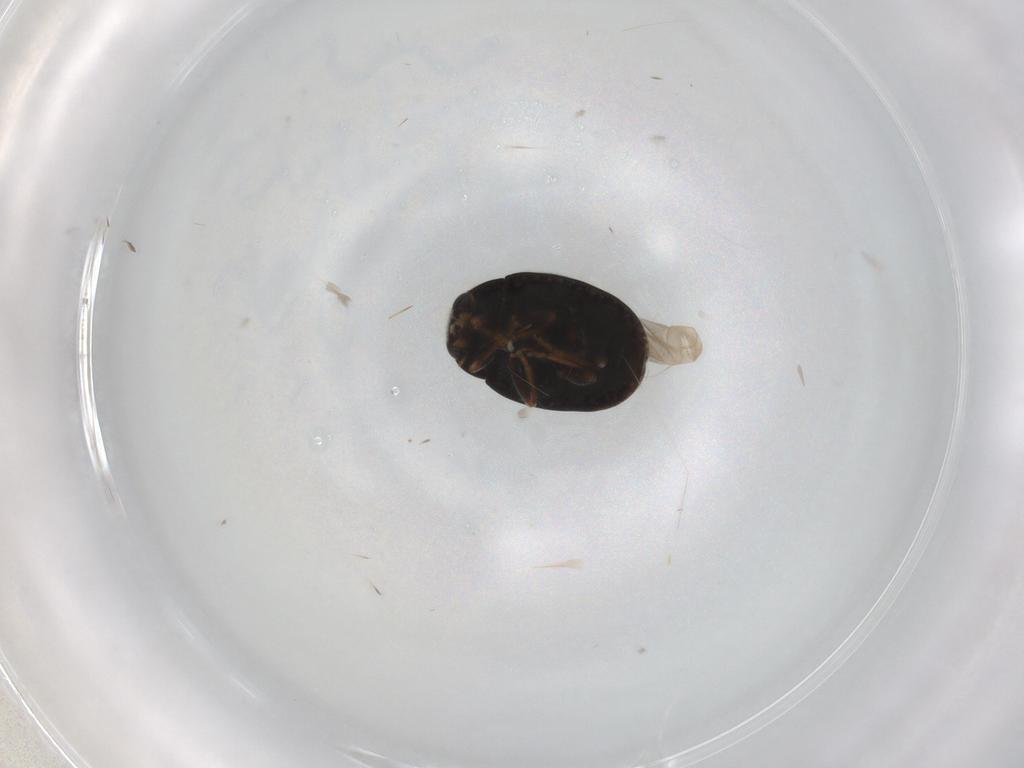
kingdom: Animalia
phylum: Arthropoda
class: Insecta
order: Coleoptera
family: Coccinellidae
